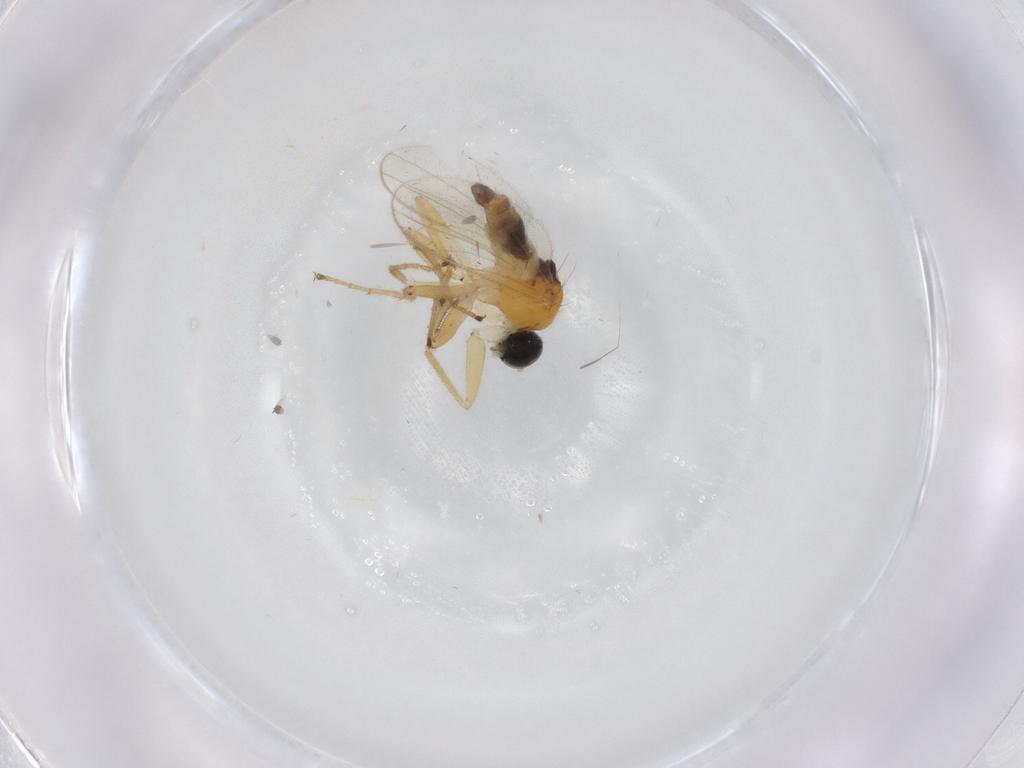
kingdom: Animalia
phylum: Arthropoda
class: Insecta
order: Diptera
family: Hybotidae
